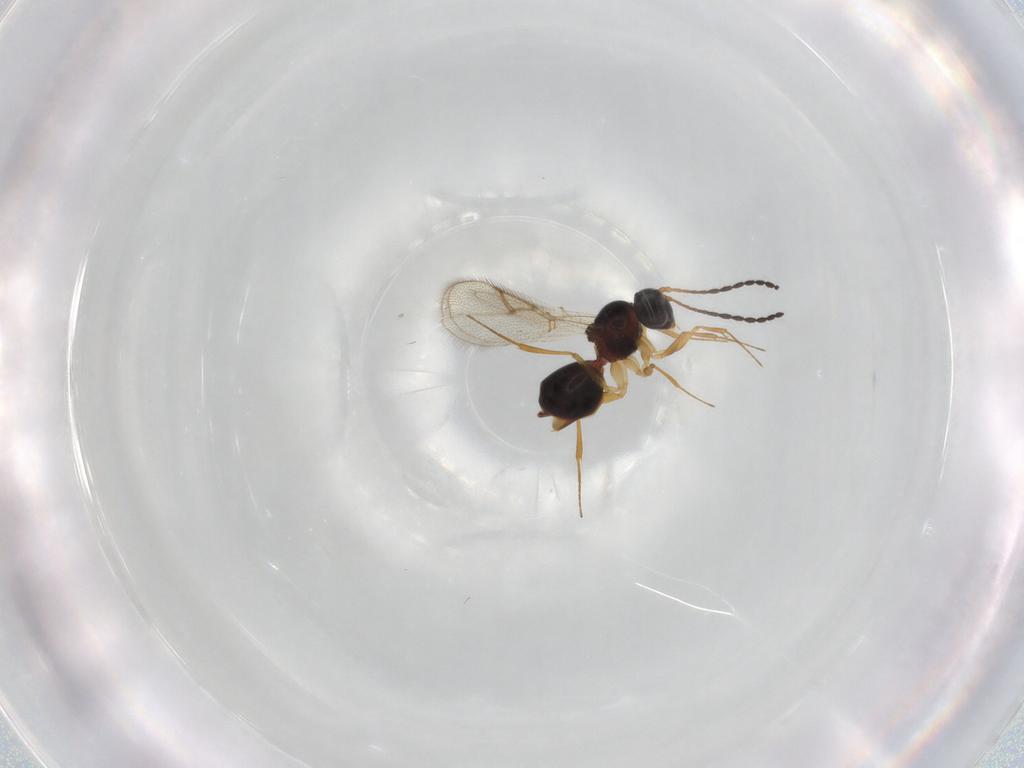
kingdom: Animalia
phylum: Arthropoda
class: Insecta
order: Hymenoptera
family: Figitidae
